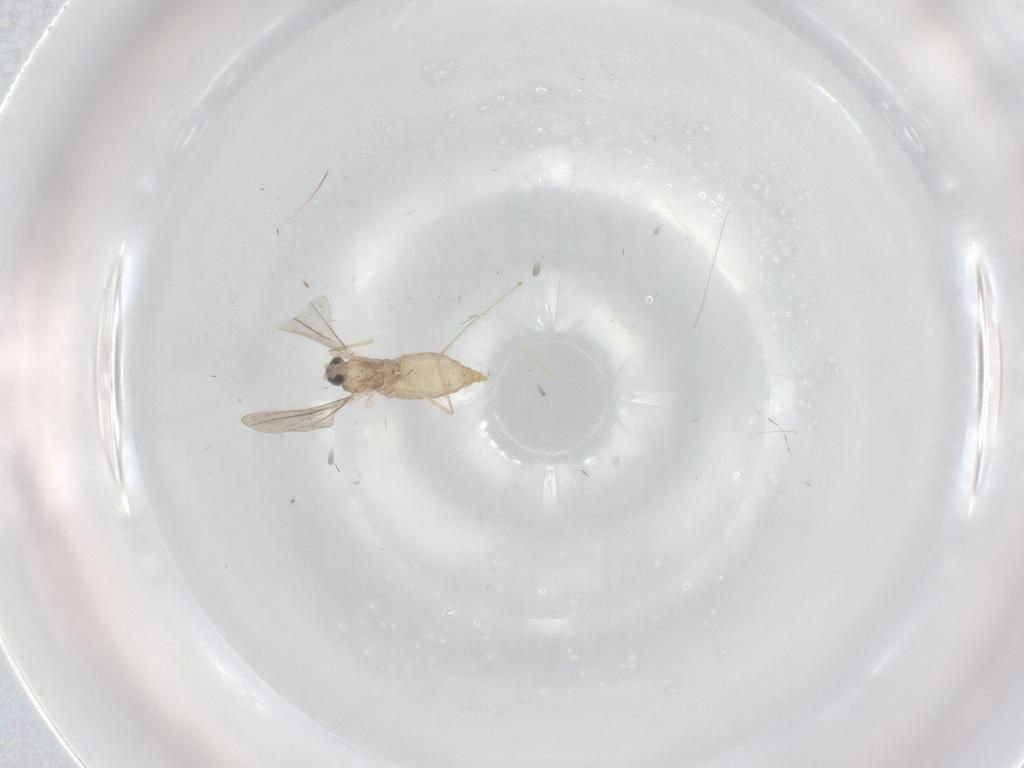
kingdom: Animalia
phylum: Arthropoda
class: Insecta
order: Diptera
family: Cecidomyiidae
